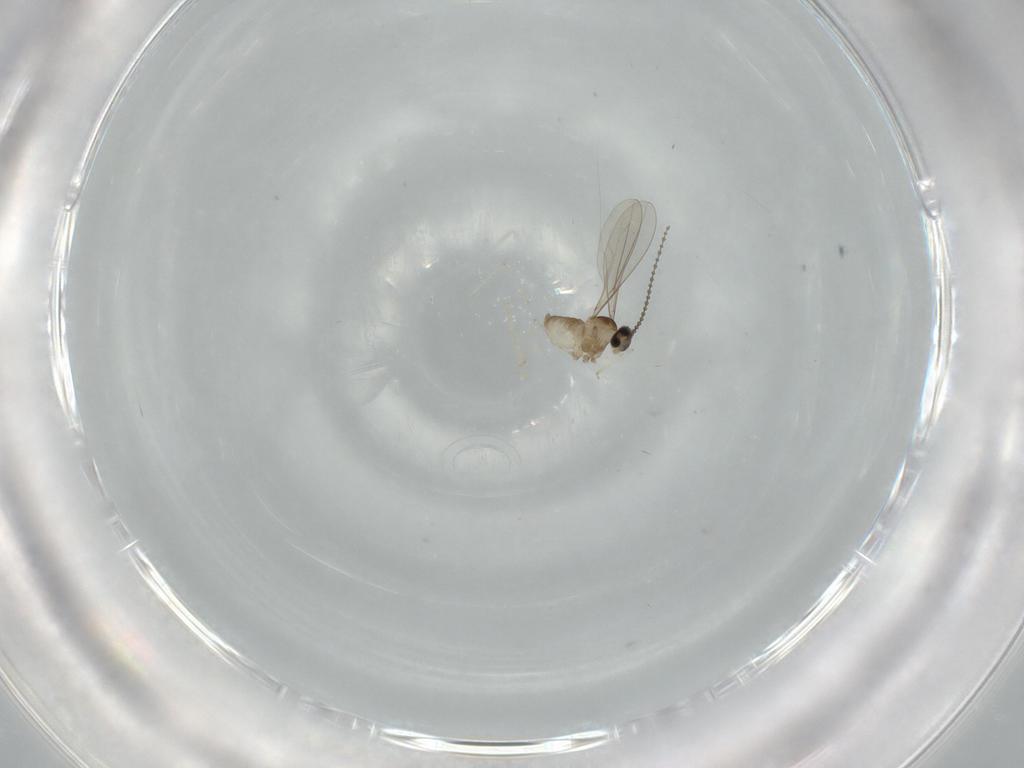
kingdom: Animalia
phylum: Arthropoda
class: Insecta
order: Diptera
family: Cecidomyiidae
